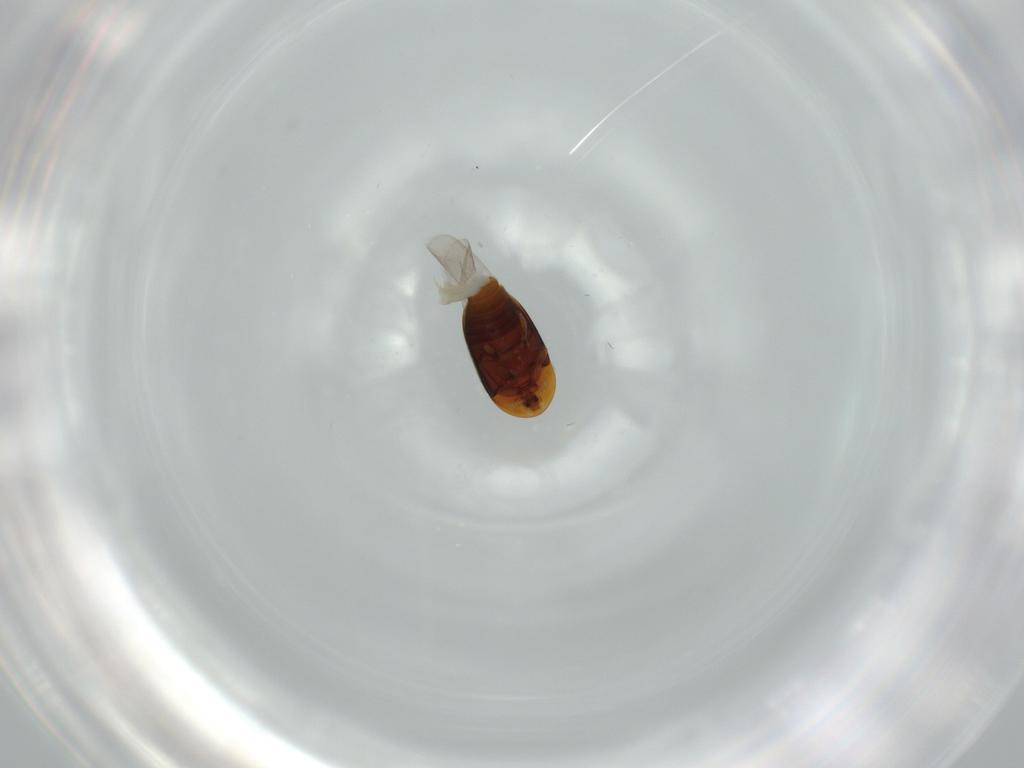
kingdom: Animalia
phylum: Arthropoda
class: Insecta
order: Coleoptera
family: Corylophidae
